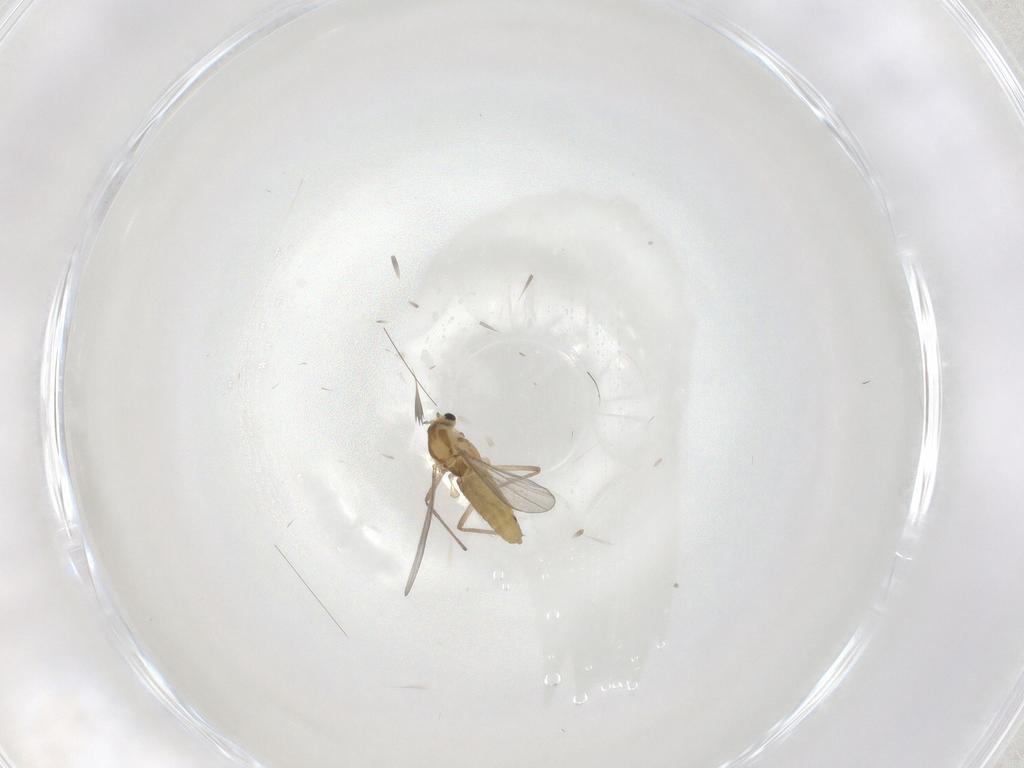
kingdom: Animalia
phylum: Arthropoda
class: Insecta
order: Diptera
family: Chironomidae
